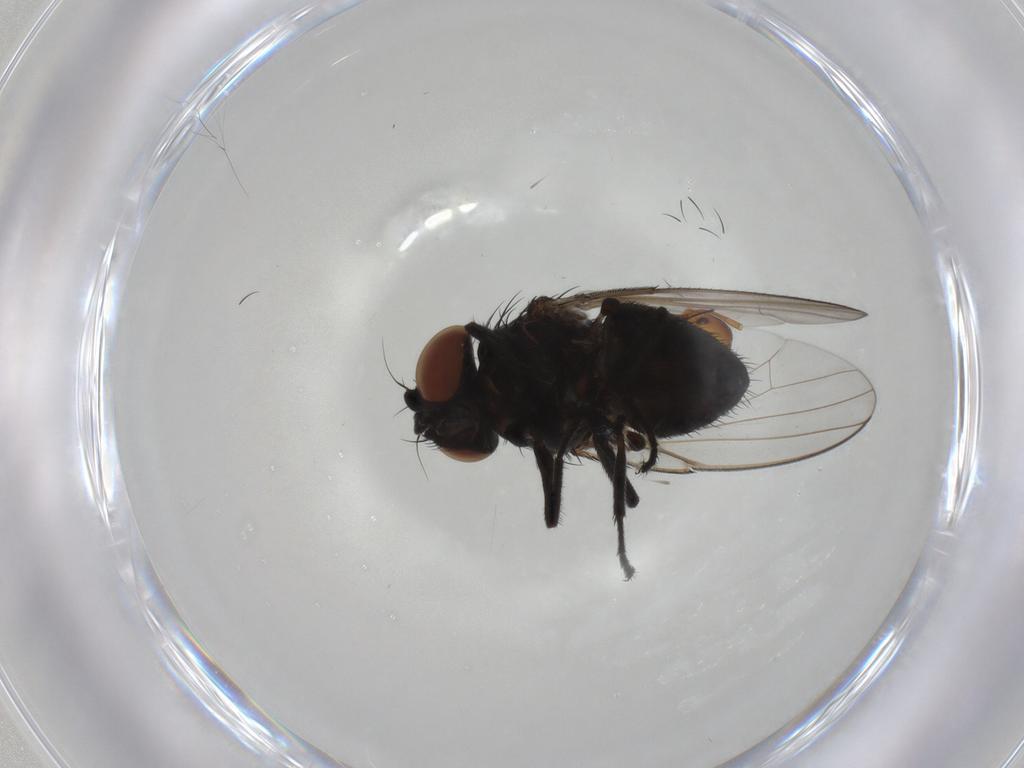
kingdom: Animalia
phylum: Arthropoda
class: Insecta
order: Diptera
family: Milichiidae
